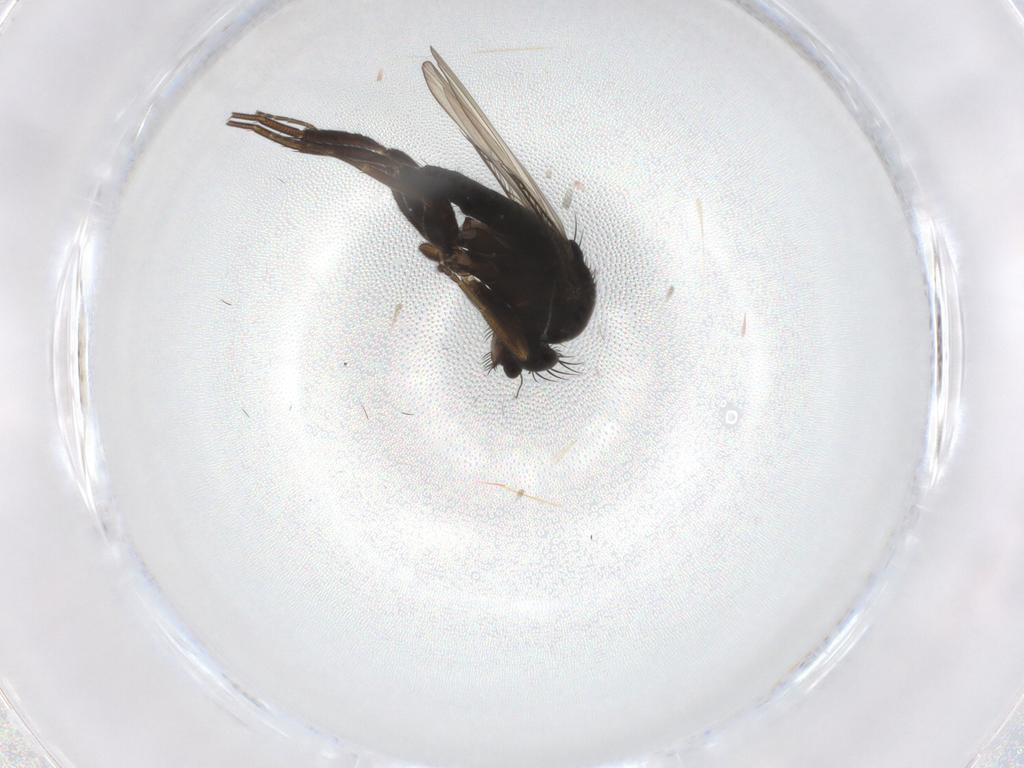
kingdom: Animalia
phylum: Arthropoda
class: Insecta
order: Diptera
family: Phoridae
